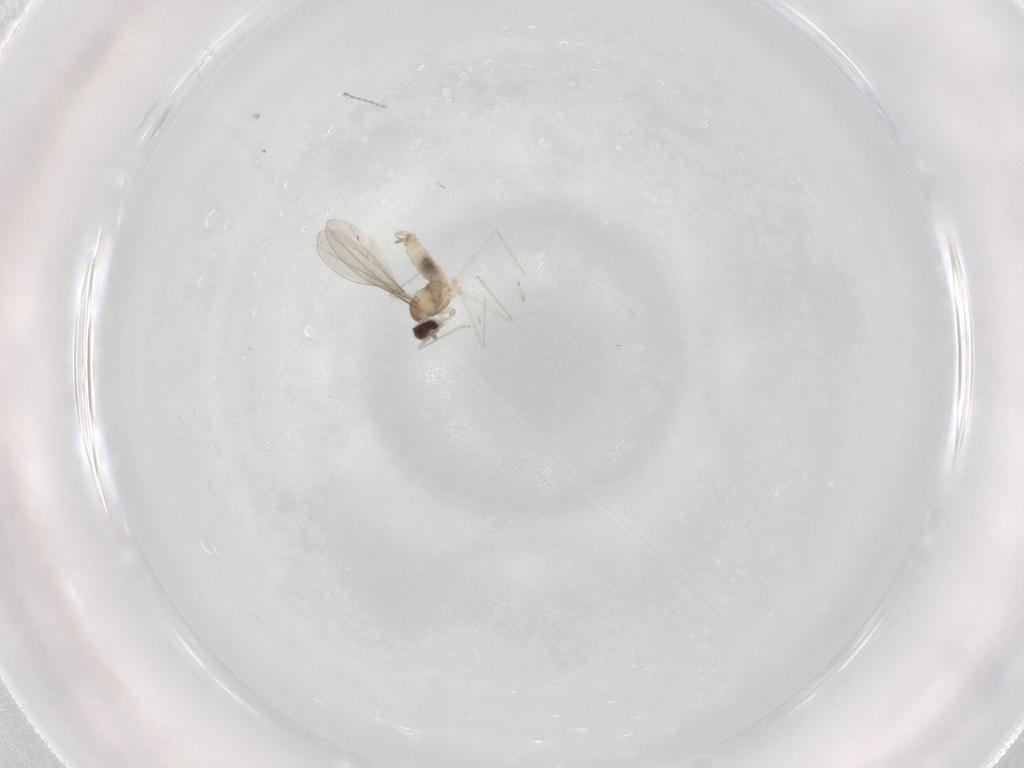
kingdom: Animalia
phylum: Arthropoda
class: Insecta
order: Diptera
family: Cecidomyiidae
